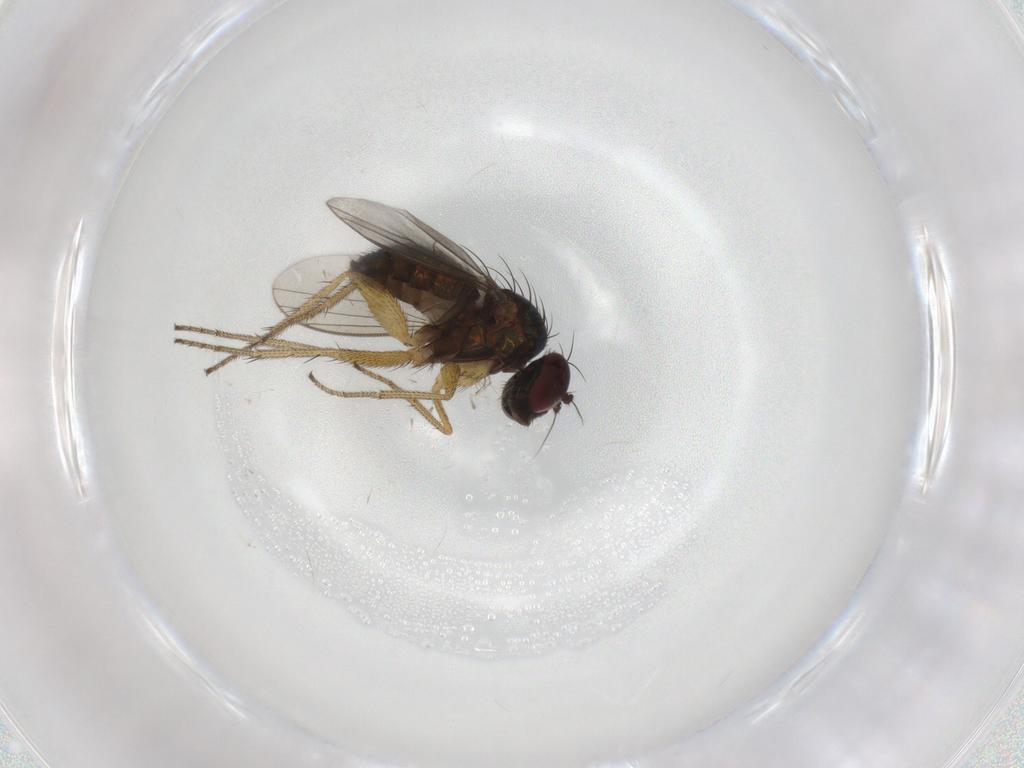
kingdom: Animalia
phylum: Arthropoda
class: Insecta
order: Diptera
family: Dolichopodidae
